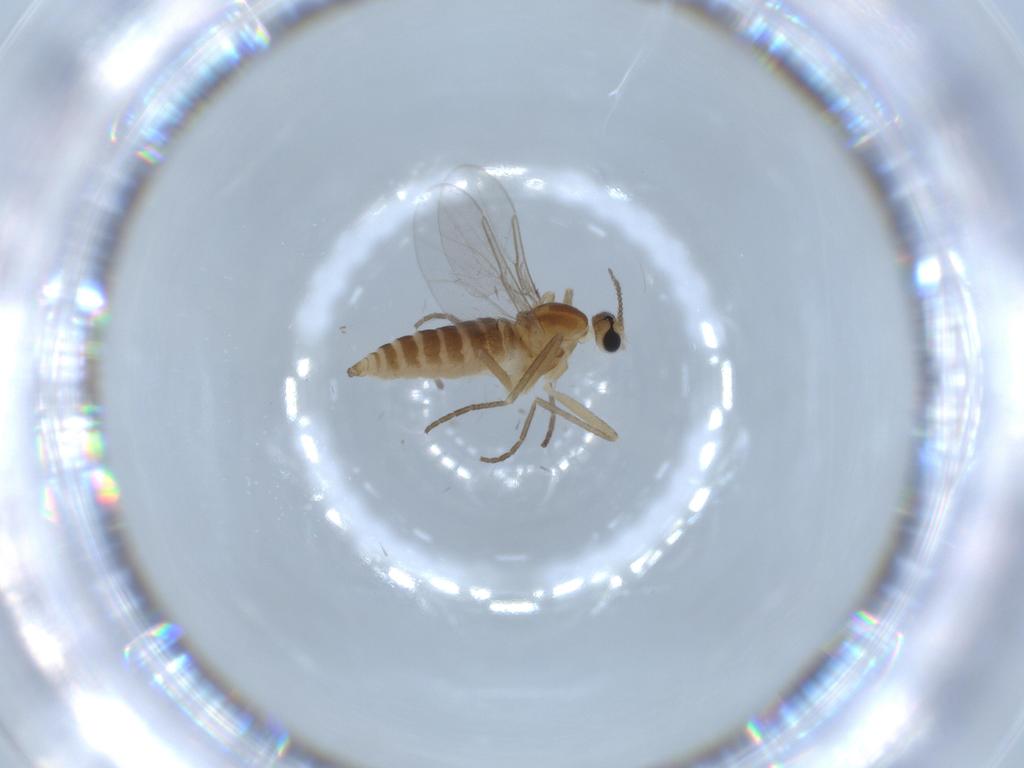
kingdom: Animalia
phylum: Arthropoda
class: Insecta
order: Diptera
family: Cecidomyiidae
